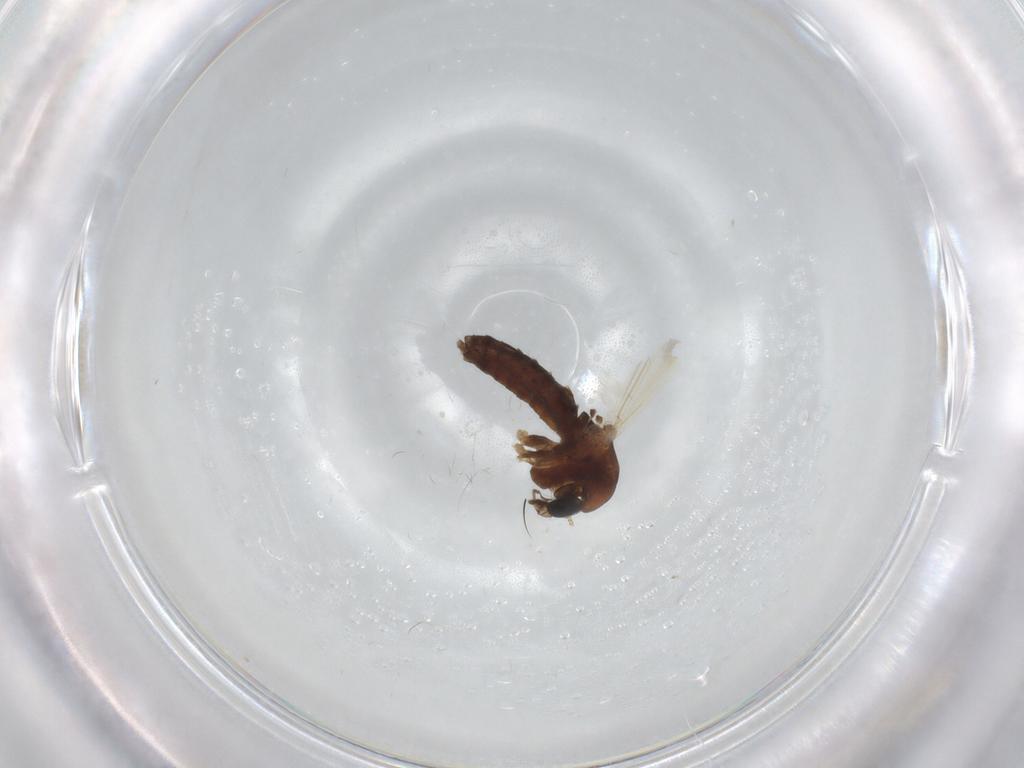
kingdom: Animalia
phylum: Arthropoda
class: Insecta
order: Diptera
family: Chironomidae
